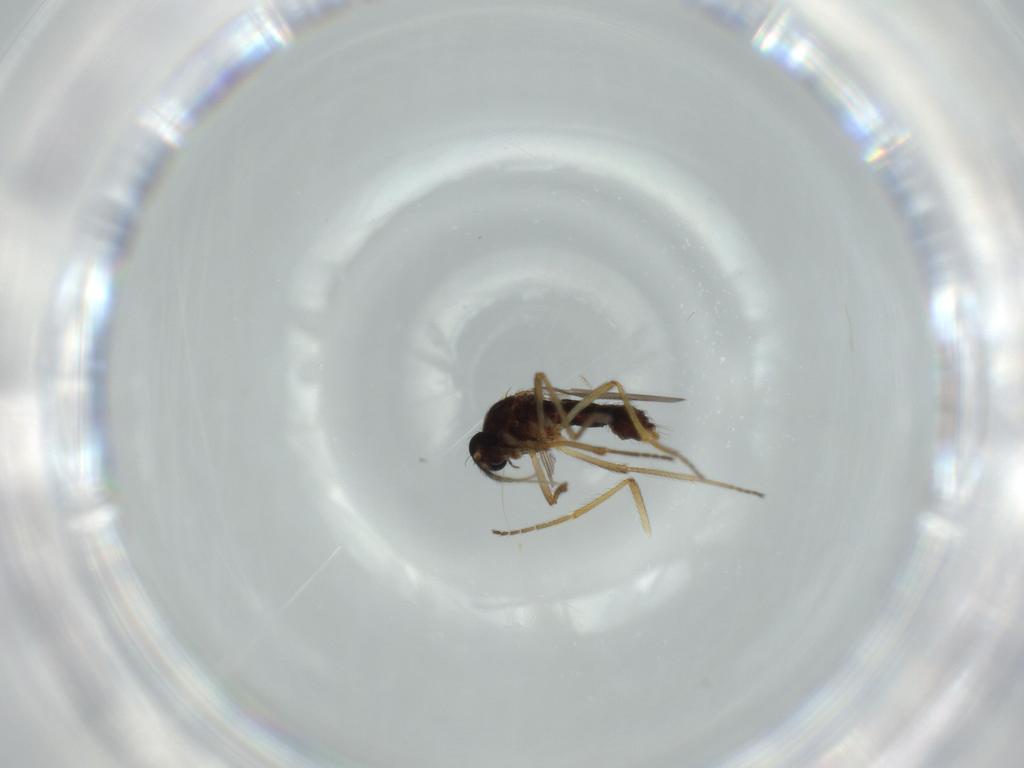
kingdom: Animalia
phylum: Arthropoda
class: Insecta
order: Diptera
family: Ceratopogonidae
